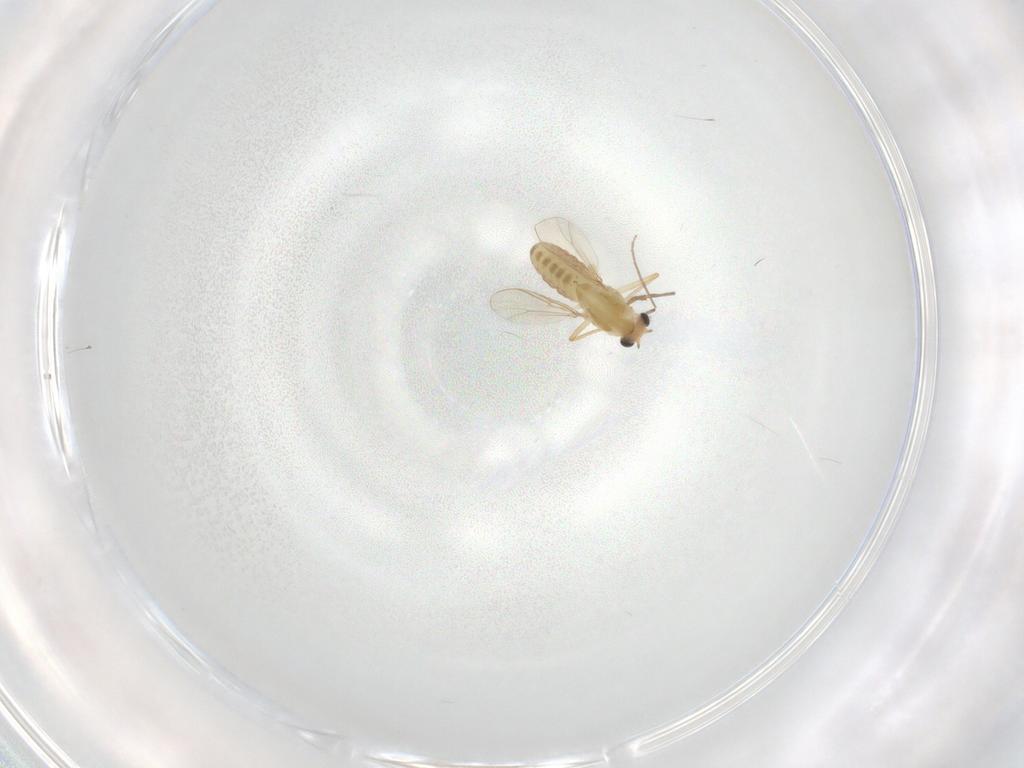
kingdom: Animalia
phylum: Arthropoda
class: Insecta
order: Diptera
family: Chironomidae
